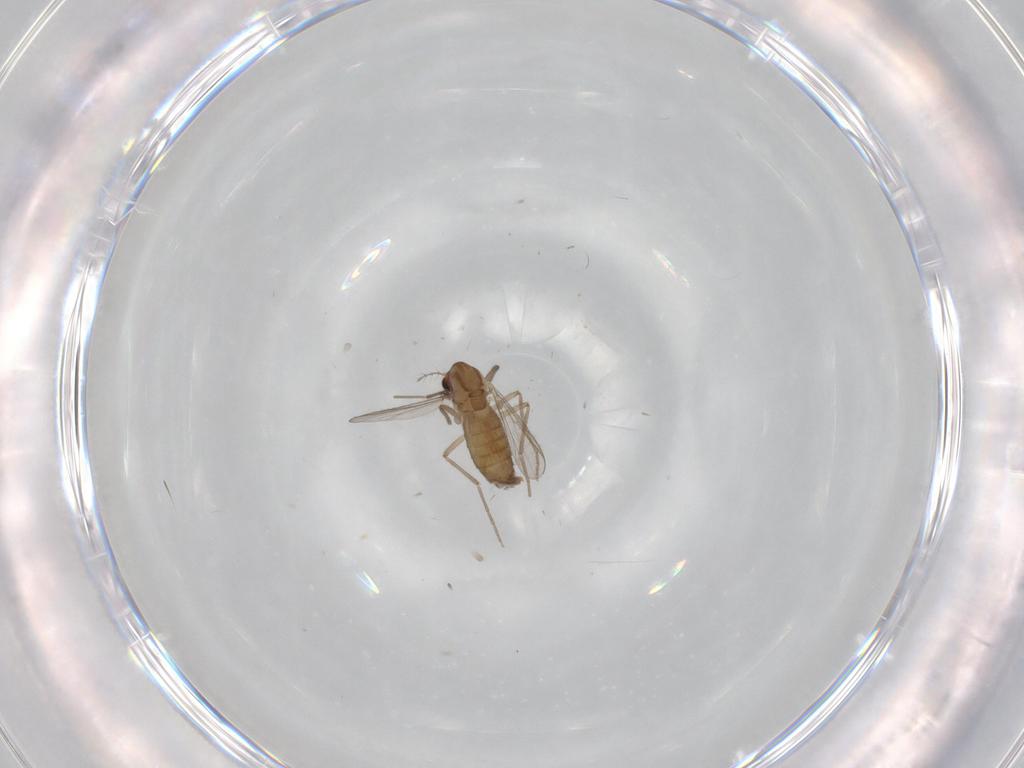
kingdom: Animalia
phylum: Arthropoda
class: Insecta
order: Diptera
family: Chironomidae
